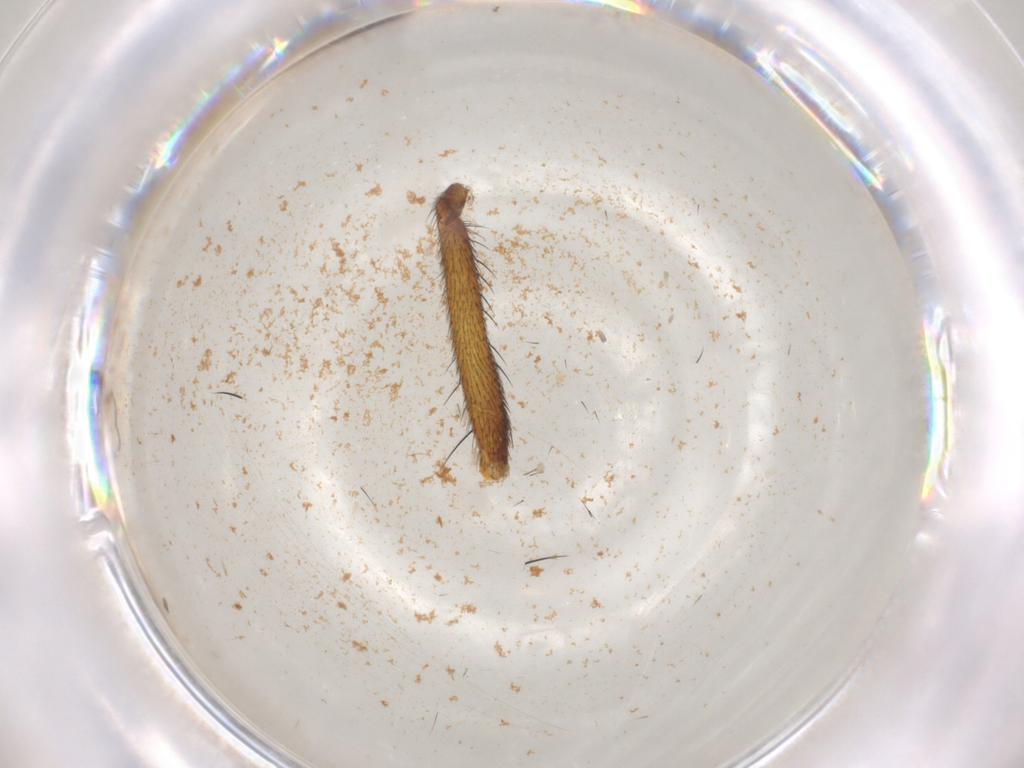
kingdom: Animalia
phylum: Arthropoda
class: Insecta
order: Diptera
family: Muscidae
